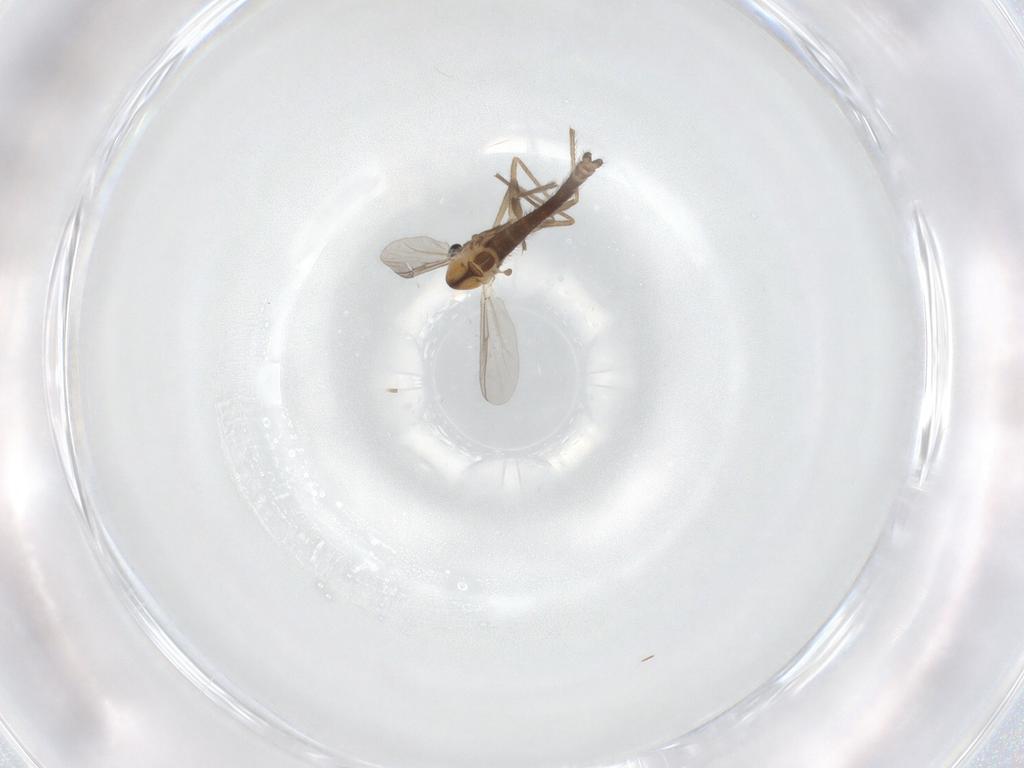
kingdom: Animalia
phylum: Arthropoda
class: Insecta
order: Diptera
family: Chironomidae
